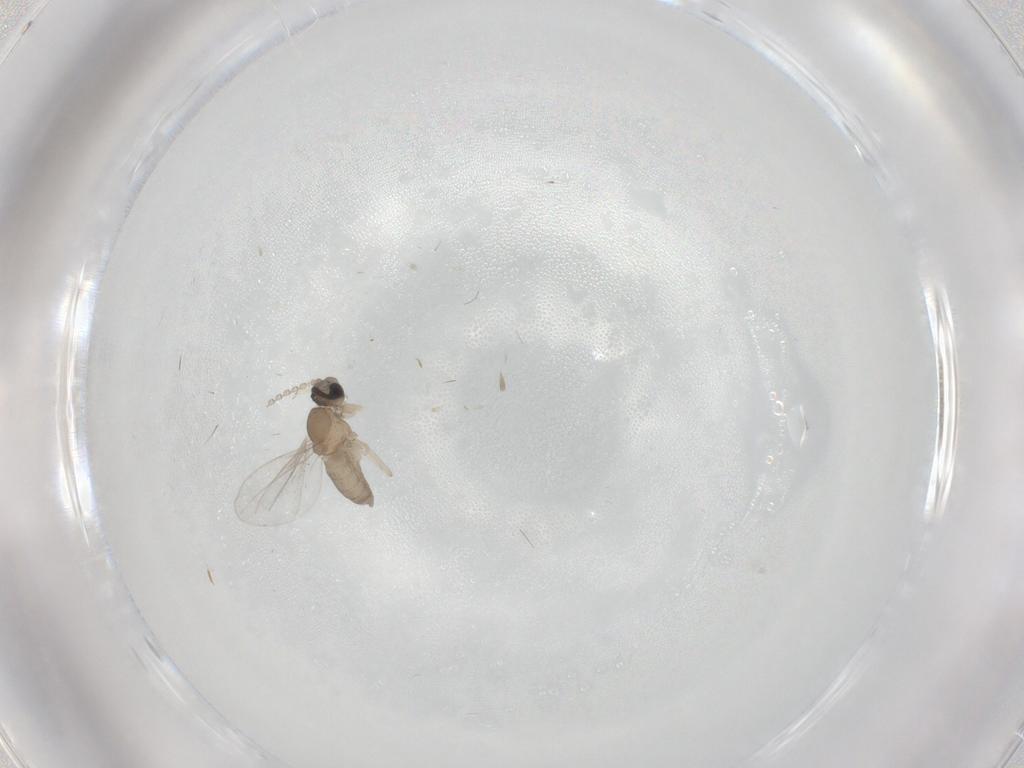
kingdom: Animalia
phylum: Arthropoda
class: Insecta
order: Diptera
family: Cecidomyiidae
